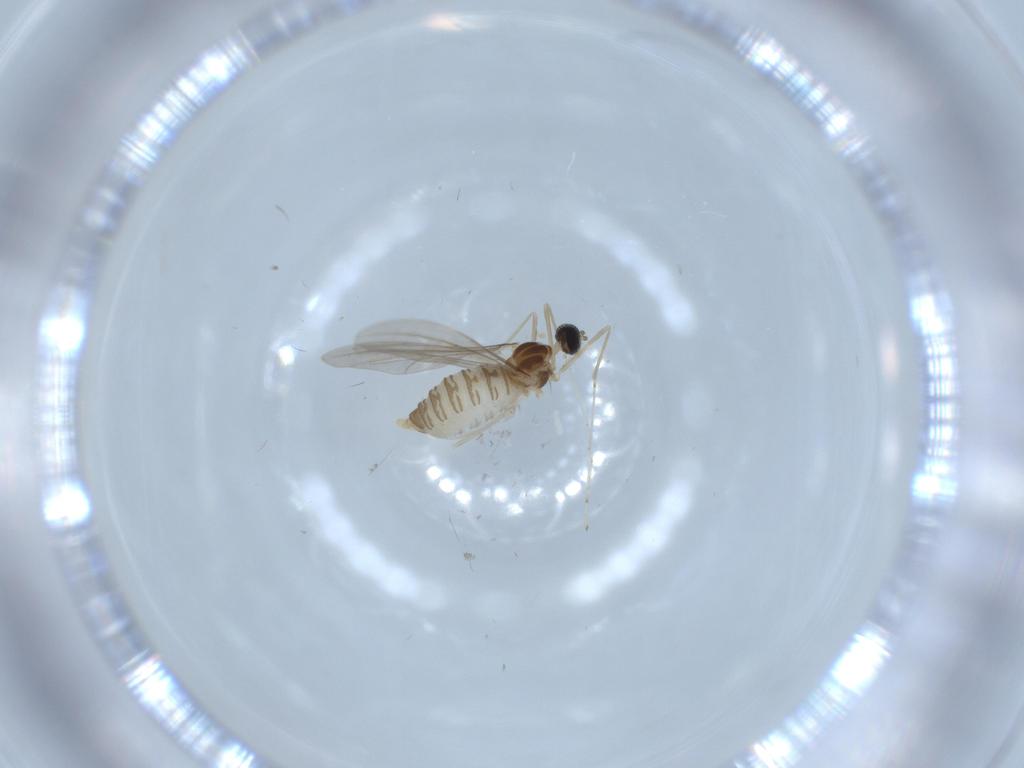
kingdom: Animalia
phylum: Arthropoda
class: Insecta
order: Diptera
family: Cecidomyiidae
